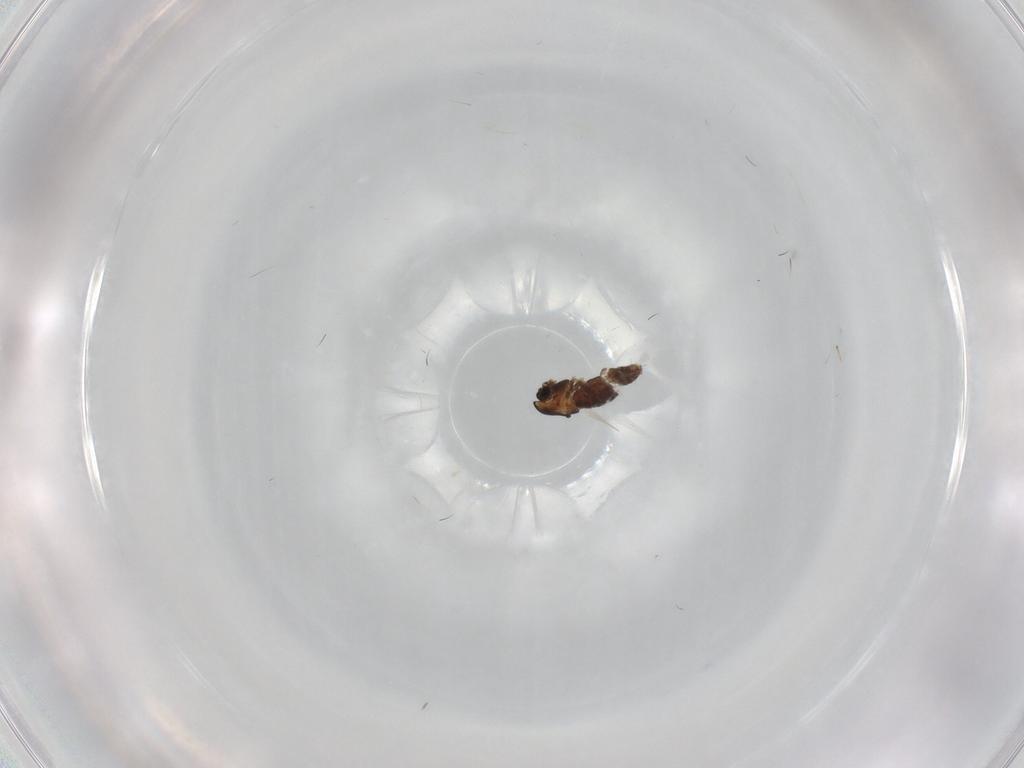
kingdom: Animalia
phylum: Arthropoda
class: Insecta
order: Diptera
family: Chironomidae
